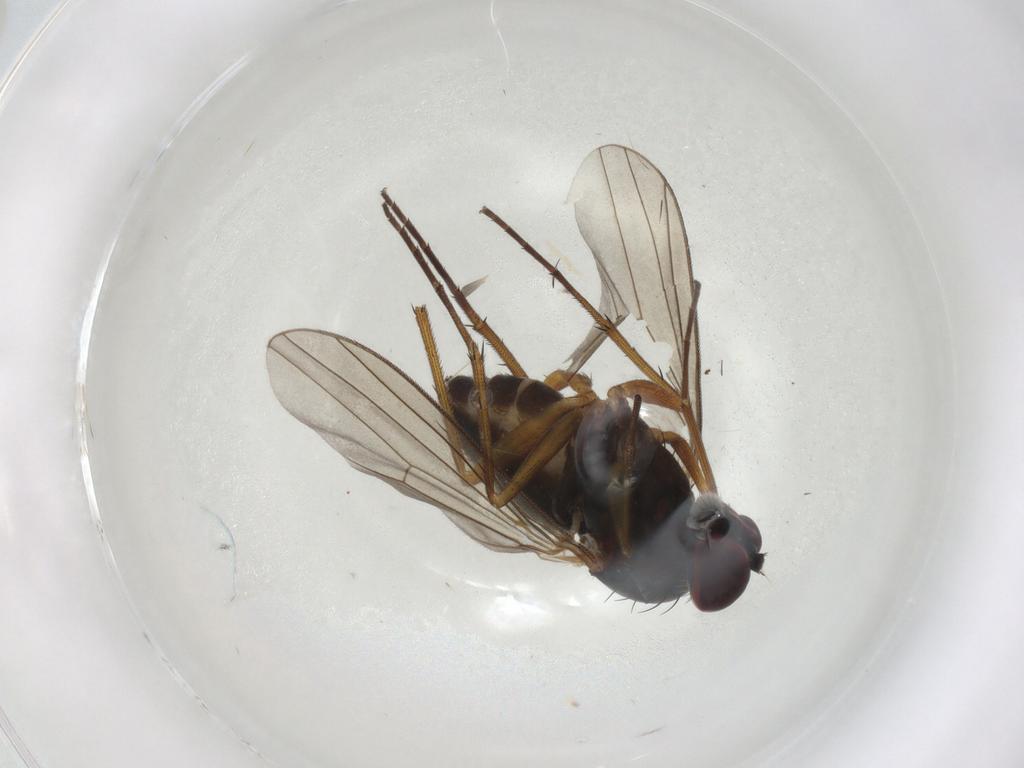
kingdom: Animalia
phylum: Arthropoda
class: Insecta
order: Diptera
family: Dolichopodidae
